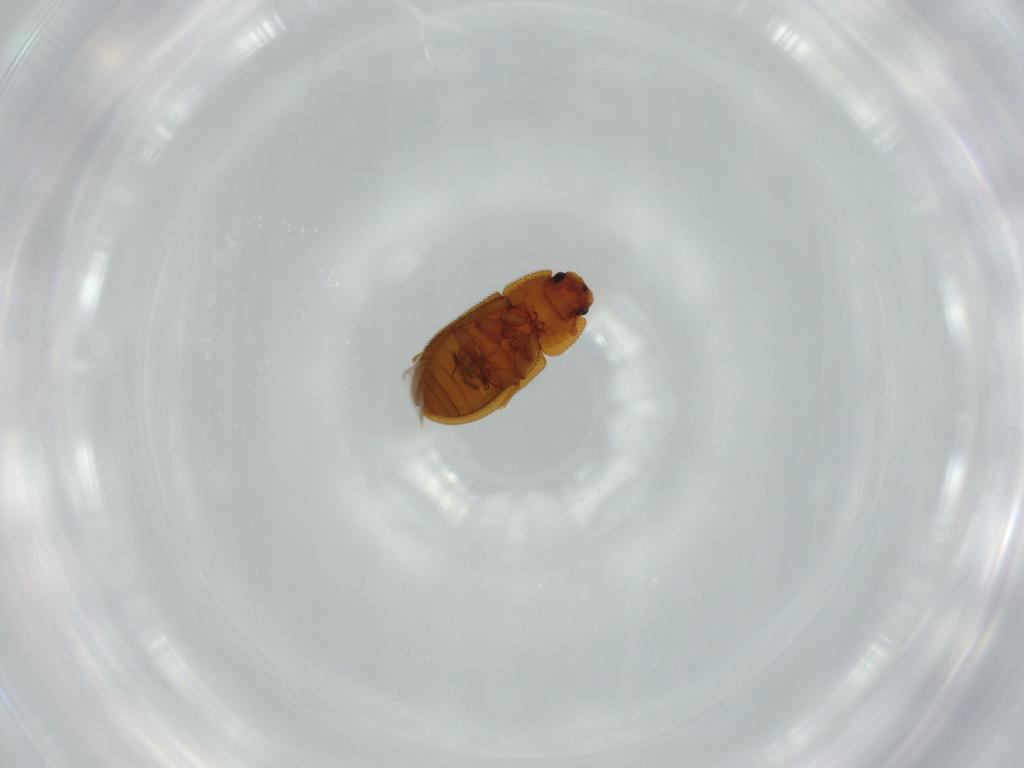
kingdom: Animalia
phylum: Arthropoda
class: Insecta
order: Coleoptera
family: Zopheridae
